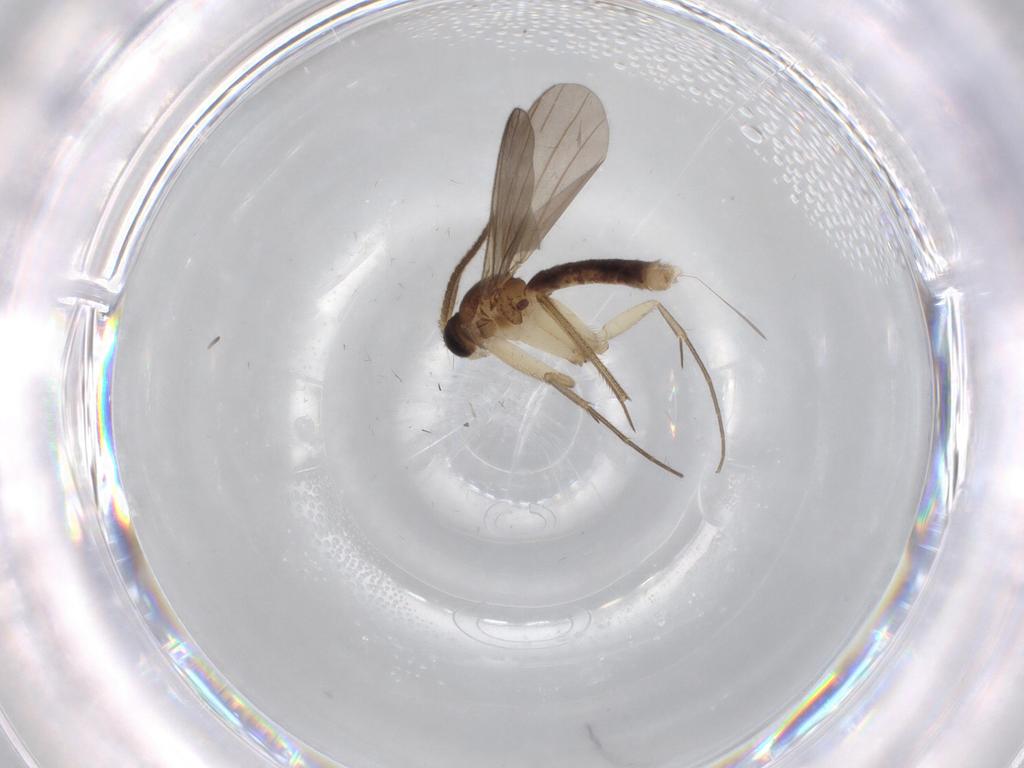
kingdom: Animalia
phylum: Arthropoda
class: Insecta
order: Diptera
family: Mycetophilidae
